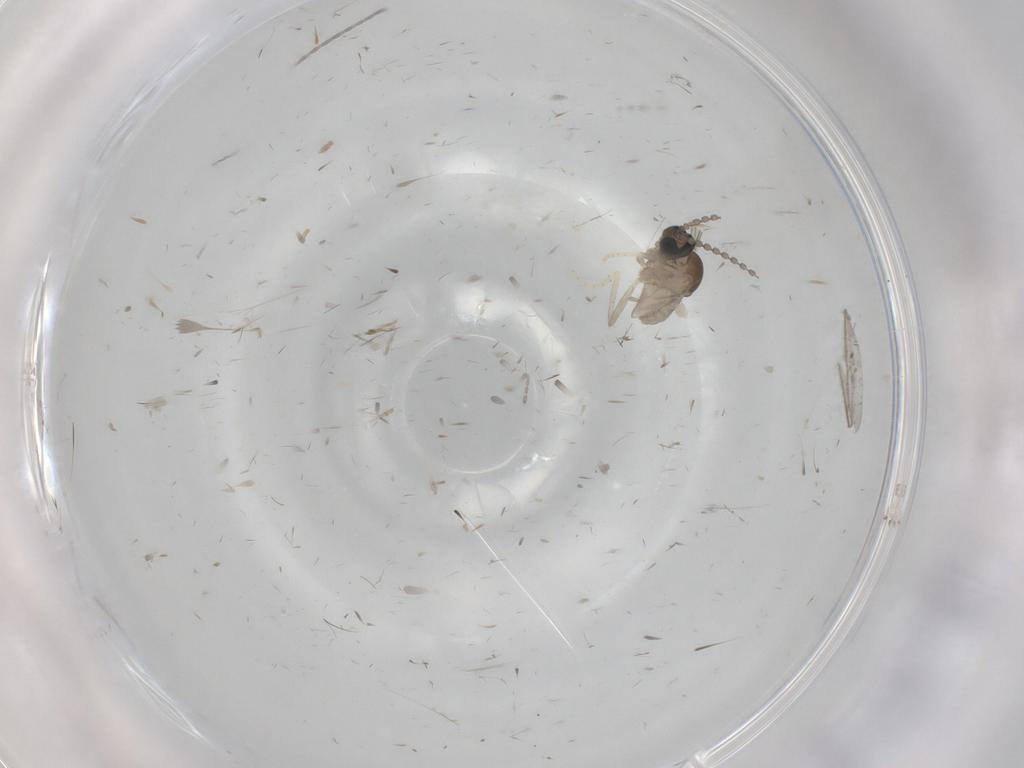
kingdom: Animalia
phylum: Arthropoda
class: Insecta
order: Diptera
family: Cecidomyiidae
